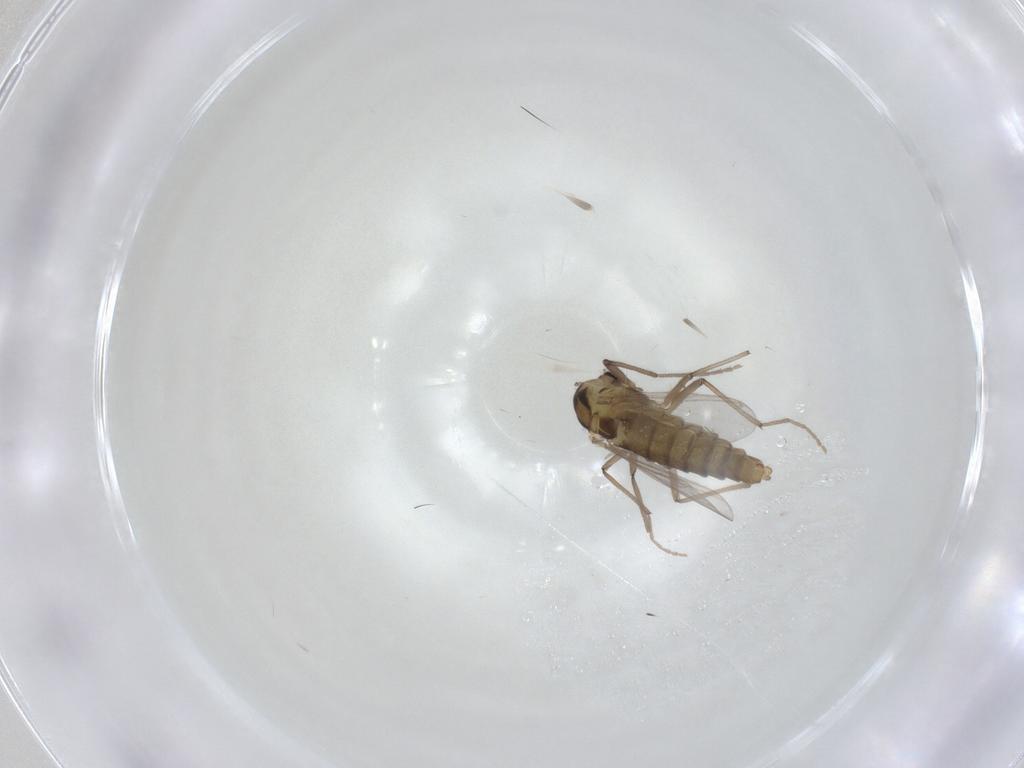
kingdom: Animalia
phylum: Arthropoda
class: Insecta
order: Diptera
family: Chironomidae
